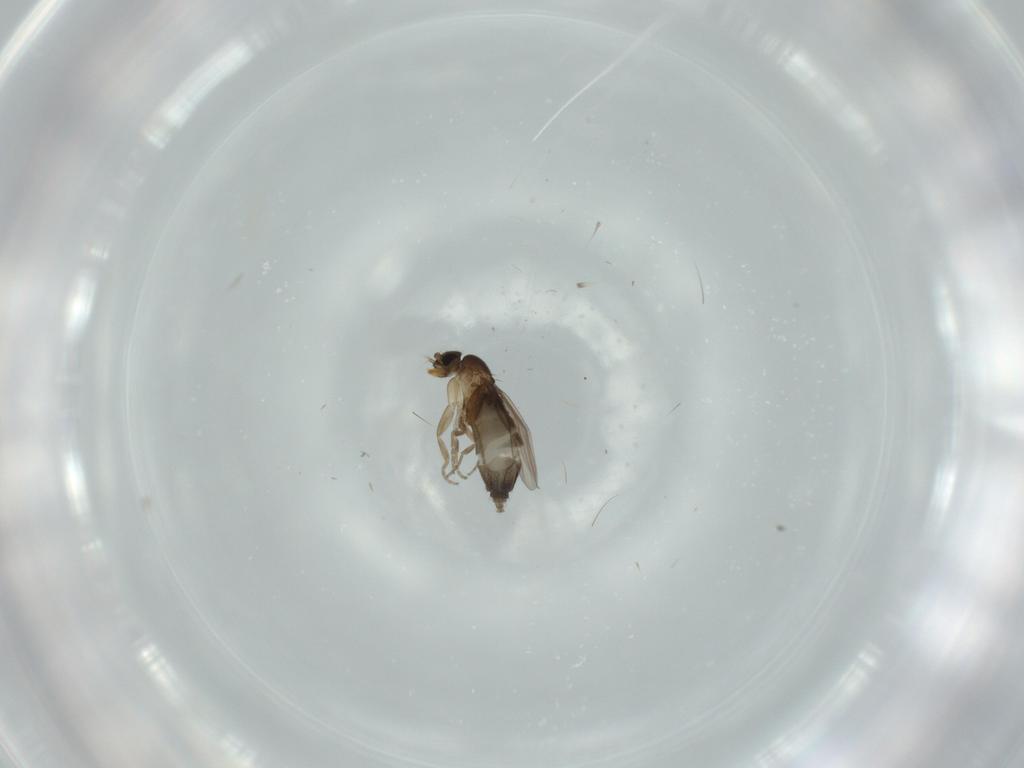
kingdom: Animalia
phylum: Arthropoda
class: Insecta
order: Diptera
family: Phoridae
